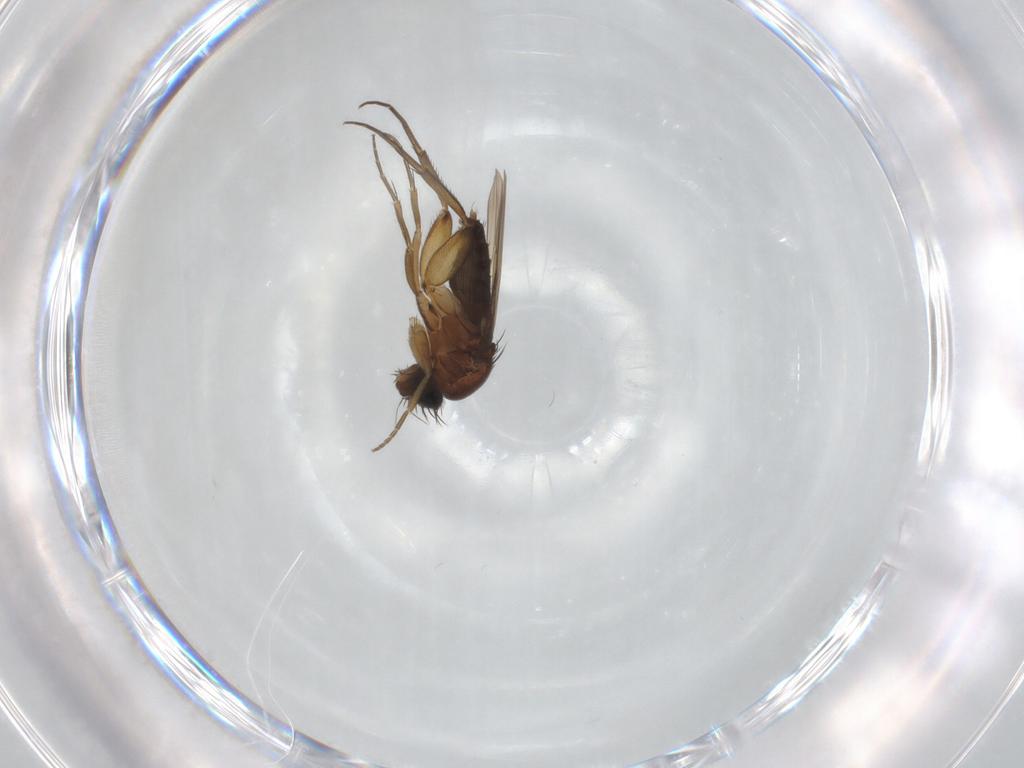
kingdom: Animalia
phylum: Arthropoda
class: Insecta
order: Diptera
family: Phoridae
